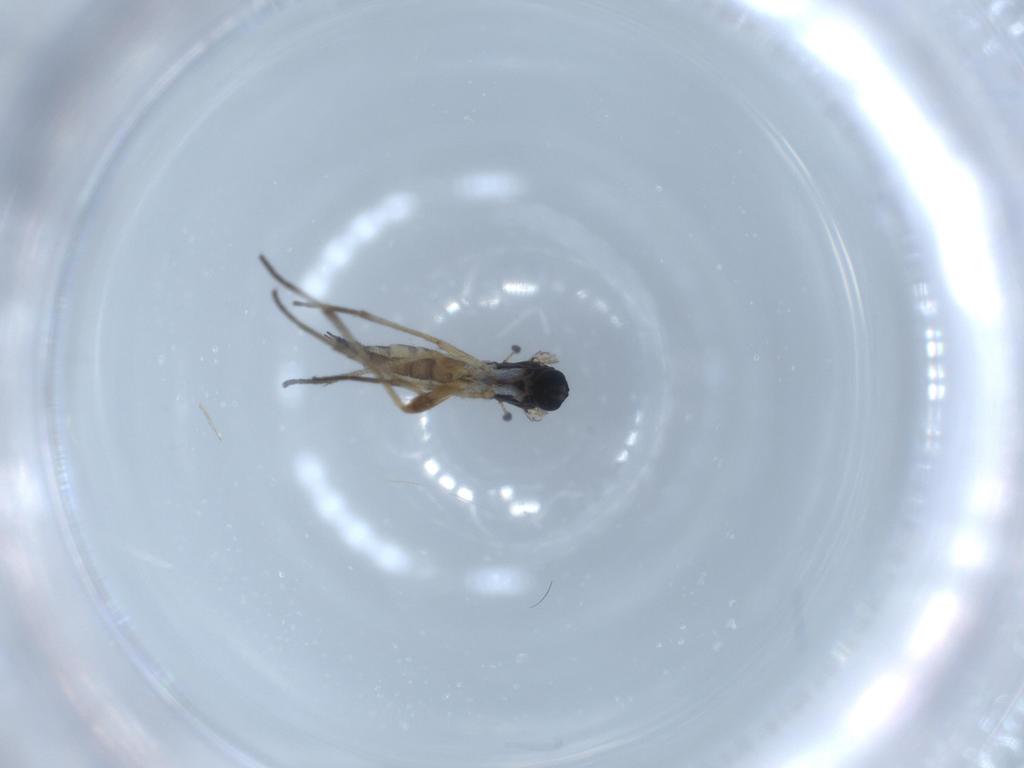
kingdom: Animalia
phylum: Arthropoda
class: Insecta
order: Diptera
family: Sciaridae
